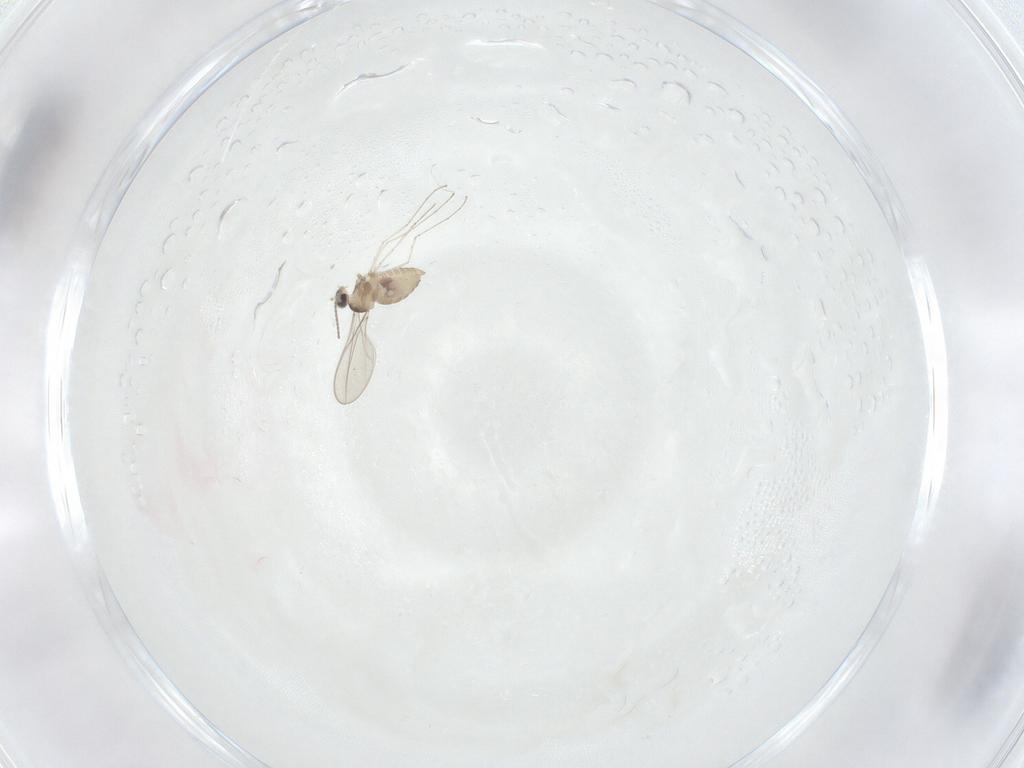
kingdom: Animalia
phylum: Arthropoda
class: Insecta
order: Diptera
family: Cecidomyiidae
